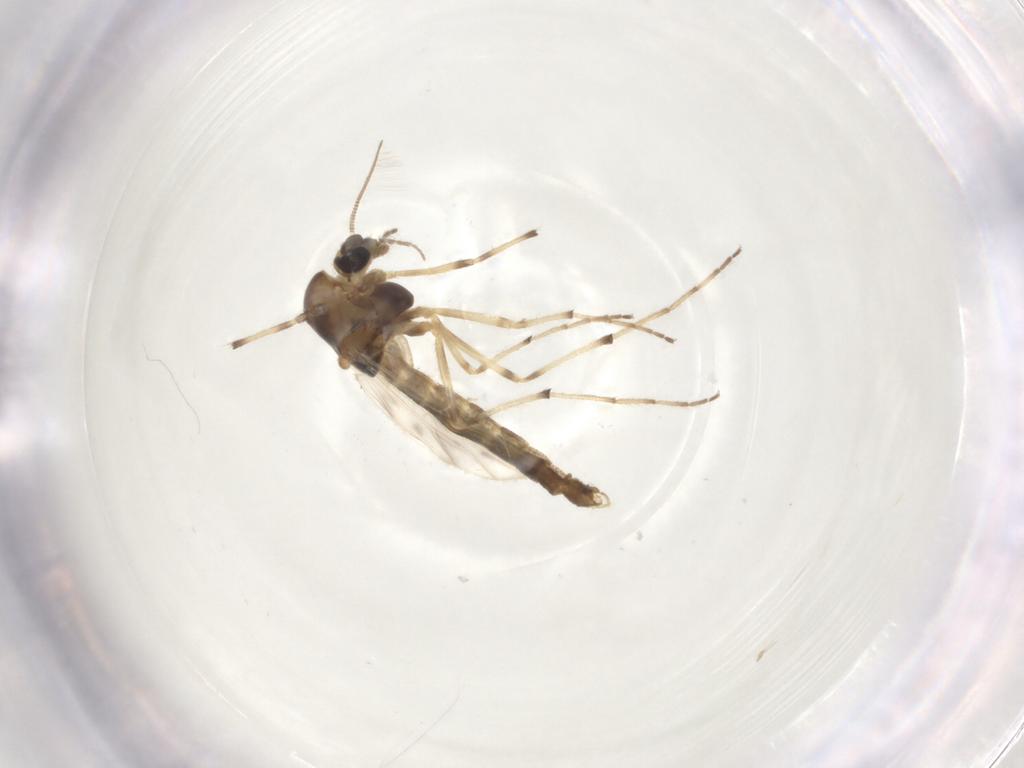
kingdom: Animalia
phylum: Arthropoda
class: Insecta
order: Diptera
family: Chironomidae
